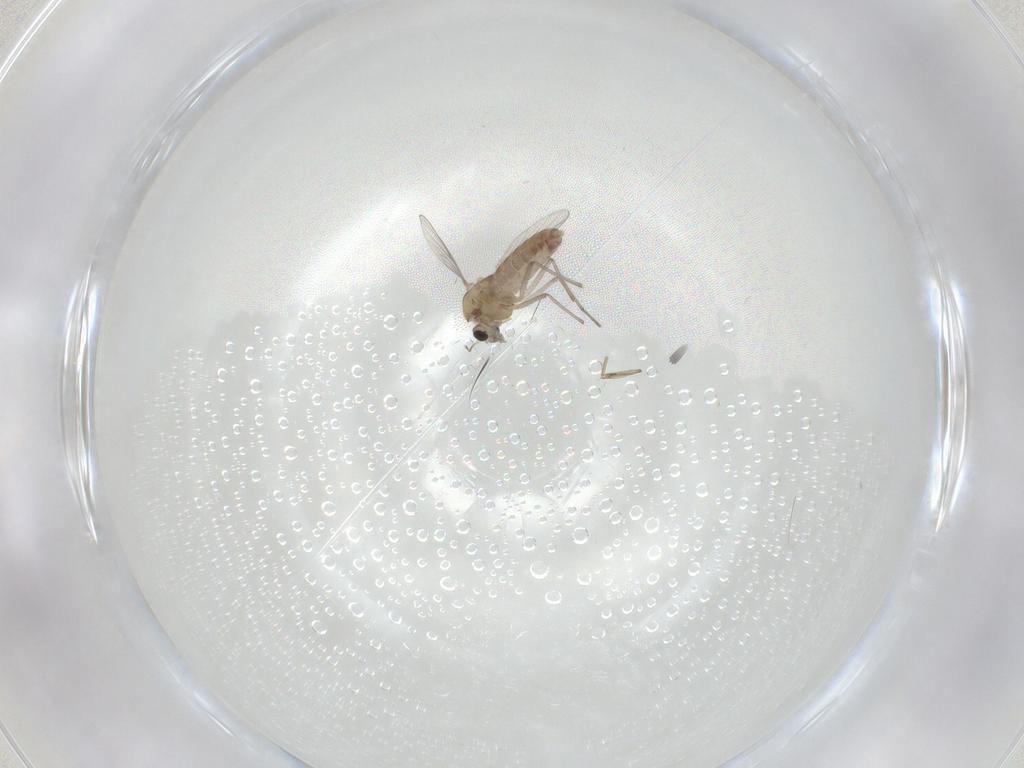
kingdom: Animalia
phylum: Arthropoda
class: Insecta
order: Diptera
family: Chironomidae
